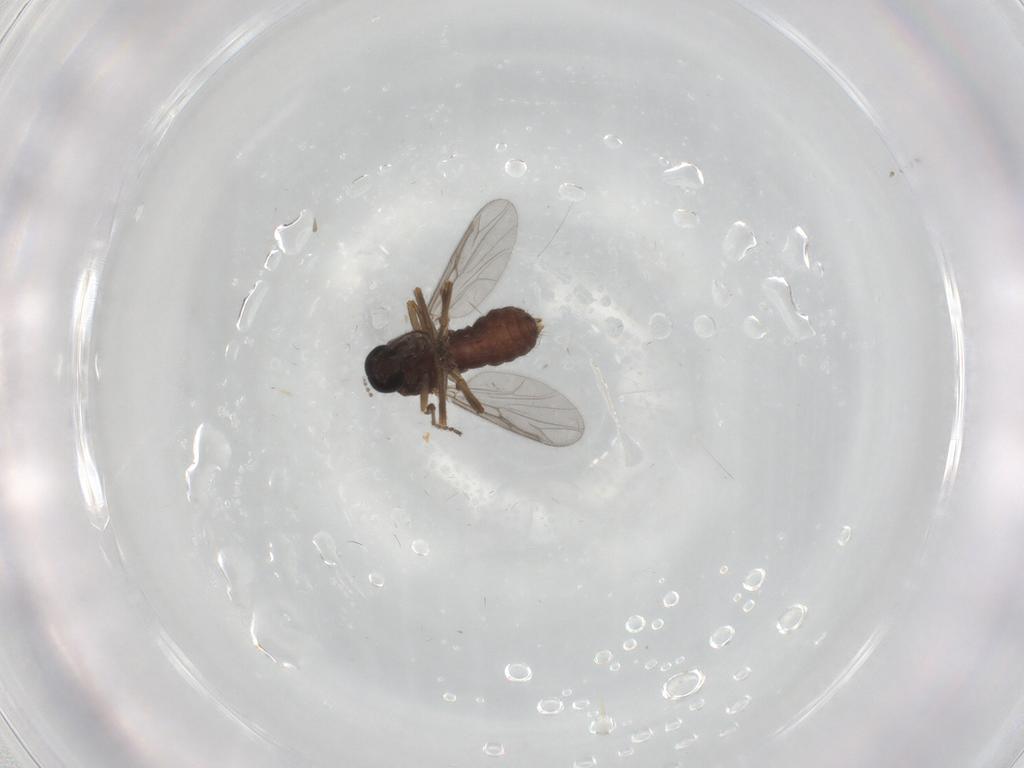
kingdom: Animalia
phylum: Arthropoda
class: Insecta
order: Diptera
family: Ceratopogonidae
